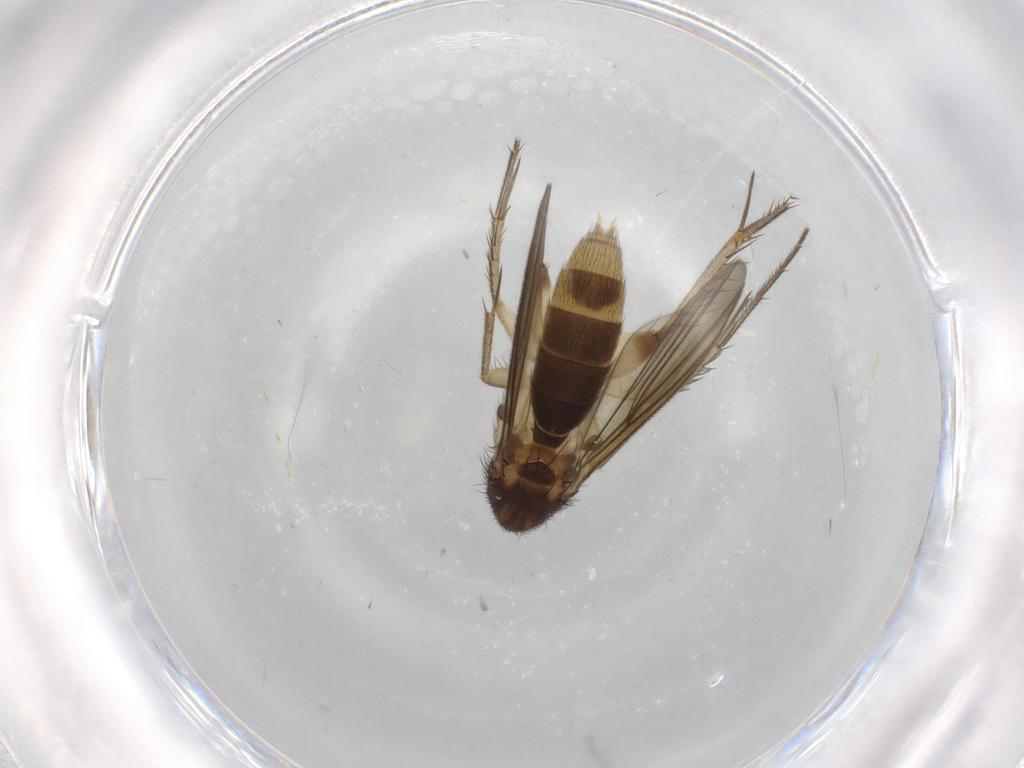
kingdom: Animalia
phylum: Arthropoda
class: Insecta
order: Diptera
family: Mycetophilidae
